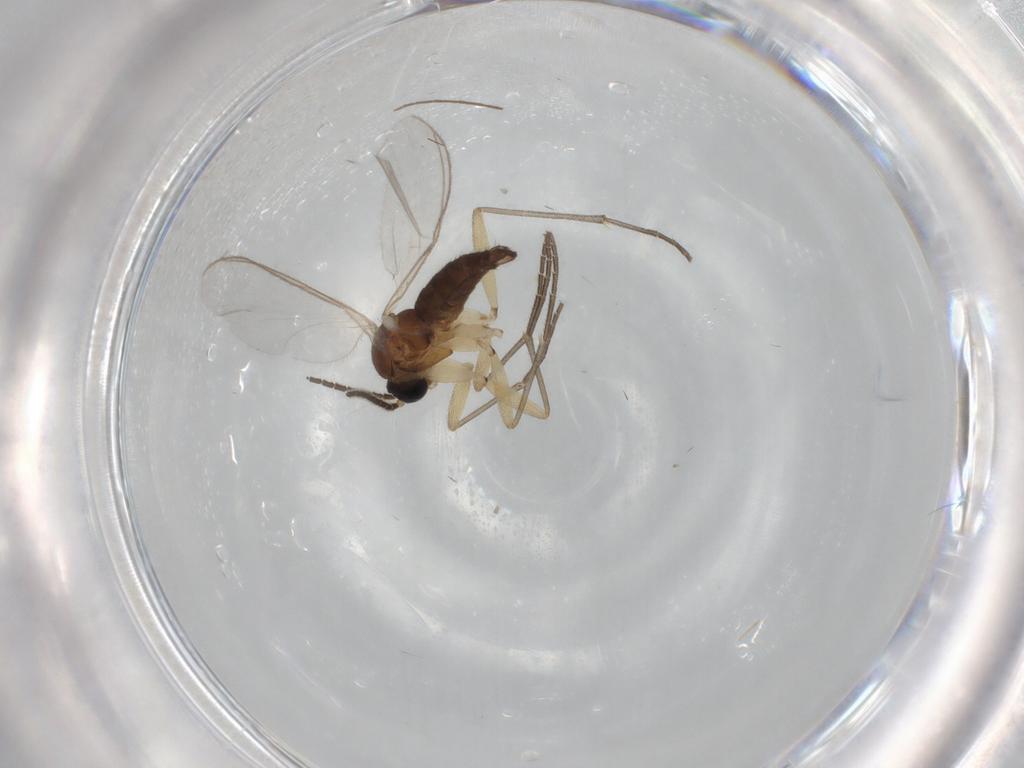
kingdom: Animalia
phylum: Arthropoda
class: Insecta
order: Diptera
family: Sciaridae
